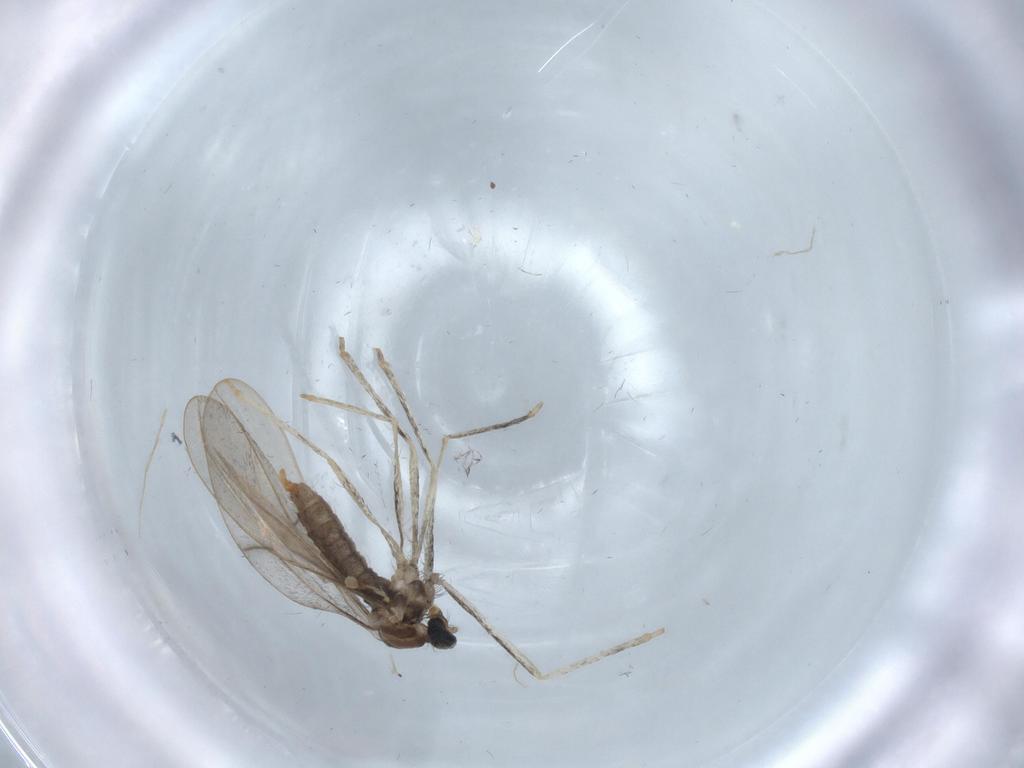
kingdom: Animalia
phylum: Arthropoda
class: Insecta
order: Diptera
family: Cecidomyiidae
